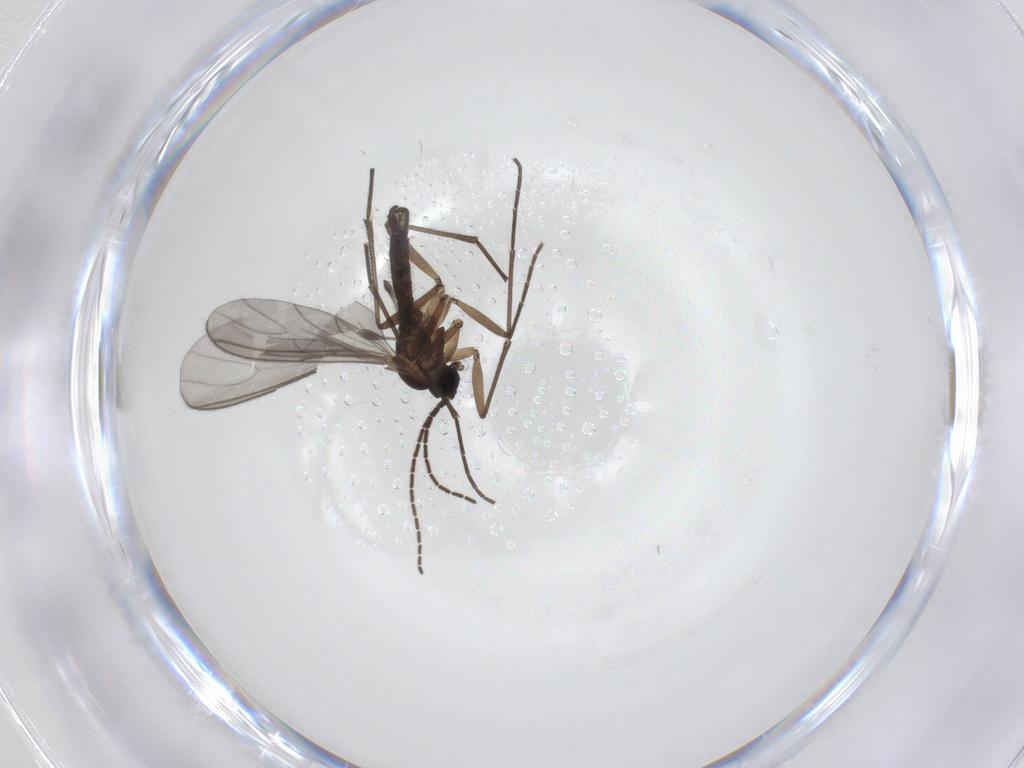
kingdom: Animalia
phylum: Arthropoda
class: Insecta
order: Diptera
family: Sciaridae
